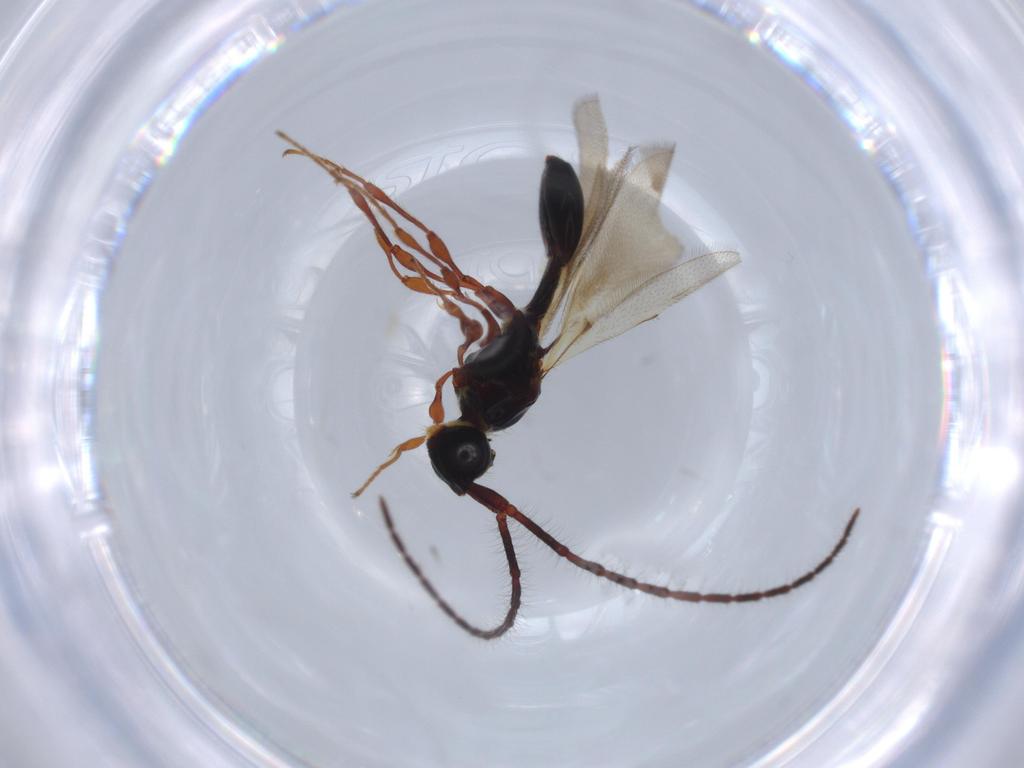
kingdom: Animalia
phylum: Arthropoda
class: Insecta
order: Hymenoptera
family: Diapriidae
